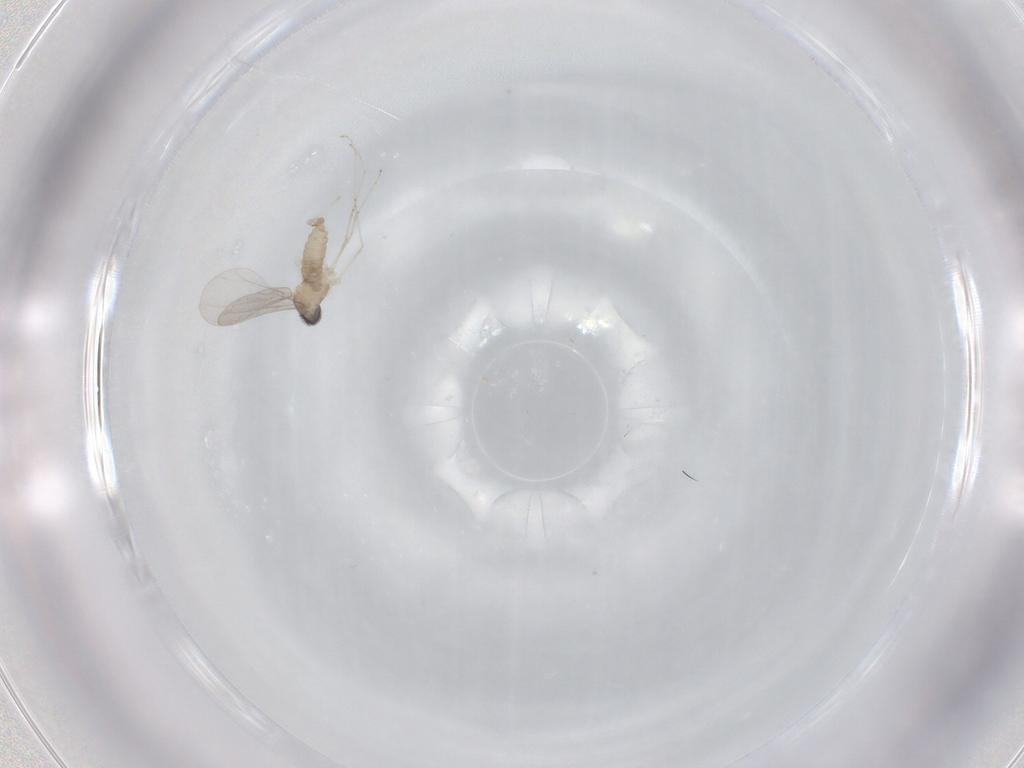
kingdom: Animalia
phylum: Arthropoda
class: Insecta
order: Diptera
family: Cecidomyiidae
